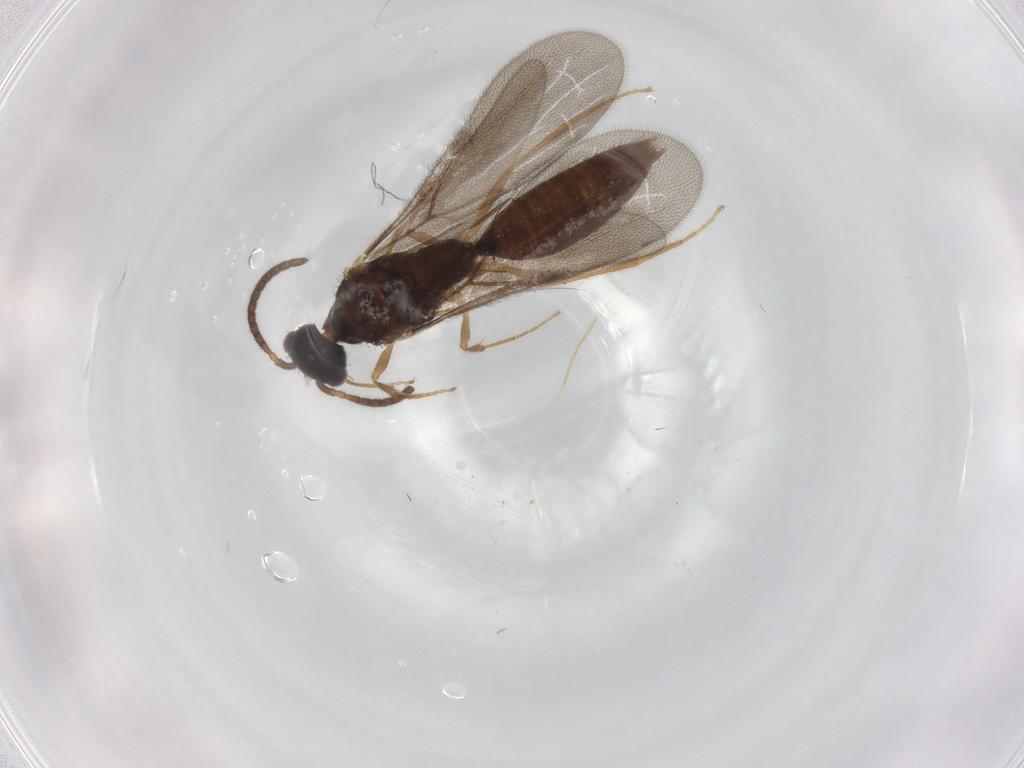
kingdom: Animalia
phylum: Arthropoda
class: Insecta
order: Hymenoptera
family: Bethylidae
